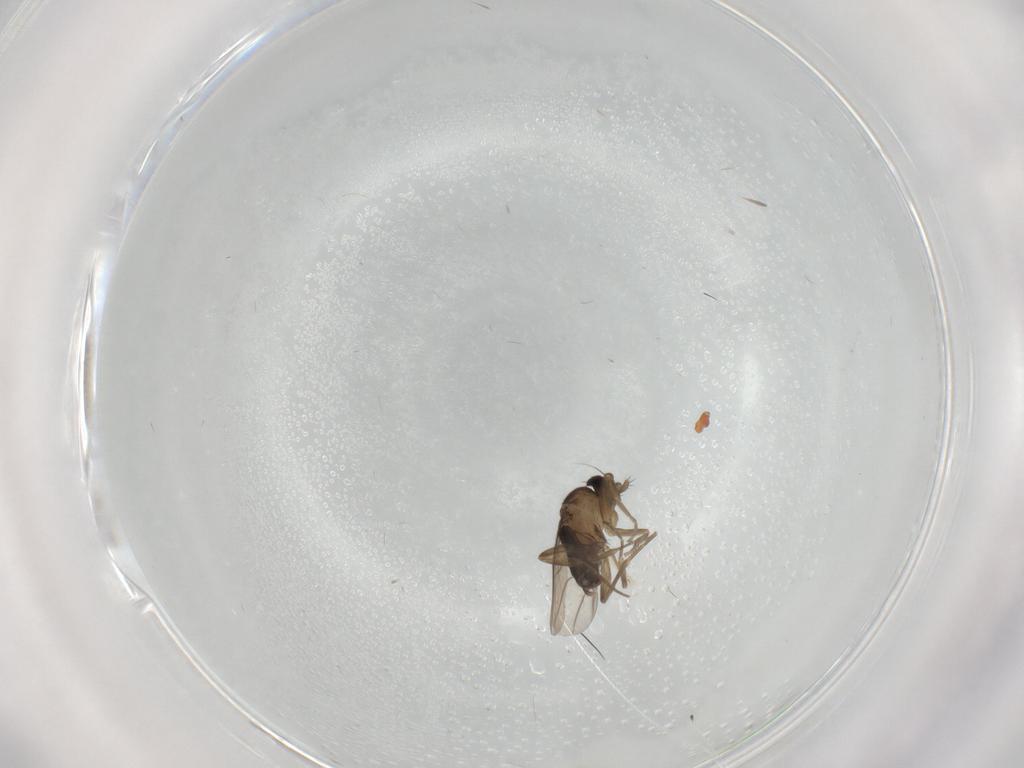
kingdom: Animalia
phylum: Arthropoda
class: Insecta
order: Diptera
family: Phoridae
